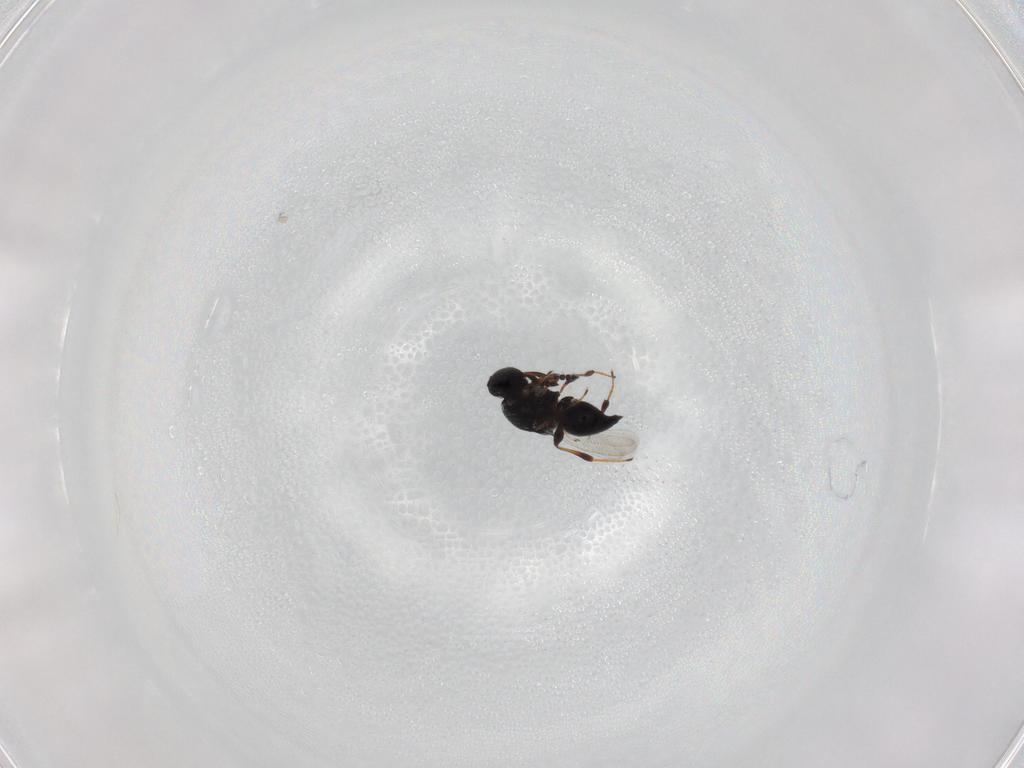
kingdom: Animalia
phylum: Arthropoda
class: Insecta
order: Hymenoptera
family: Platygastridae
